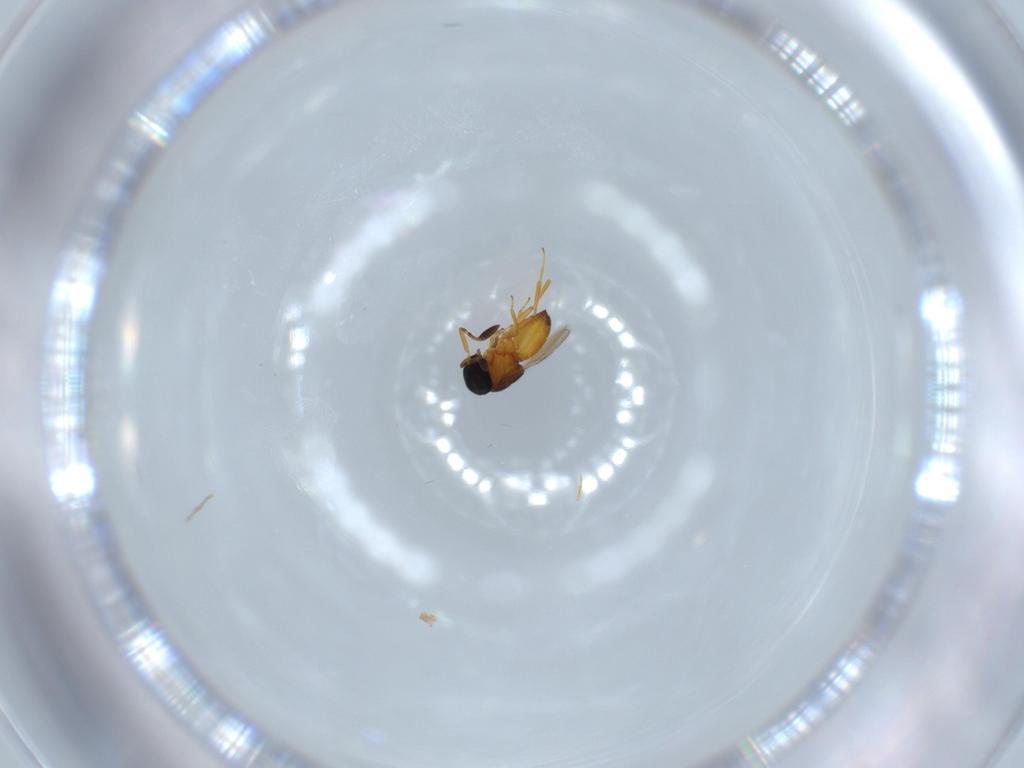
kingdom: Animalia
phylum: Arthropoda
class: Insecta
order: Hymenoptera
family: Scelionidae
